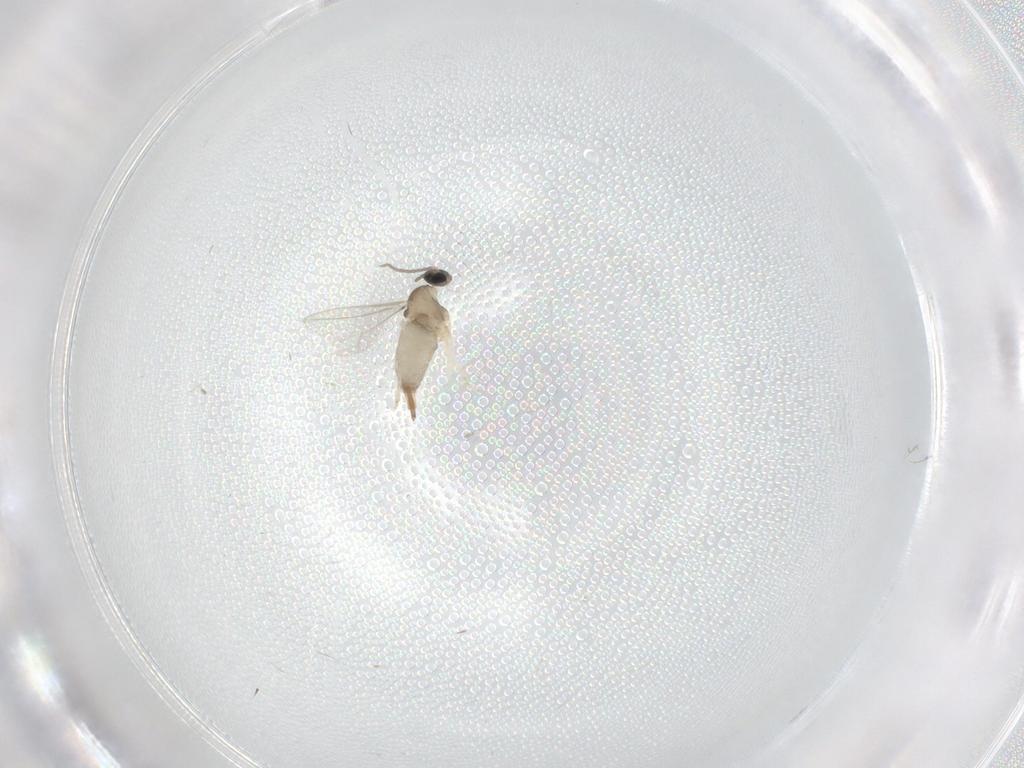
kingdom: Animalia
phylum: Arthropoda
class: Insecta
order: Diptera
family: Cecidomyiidae
